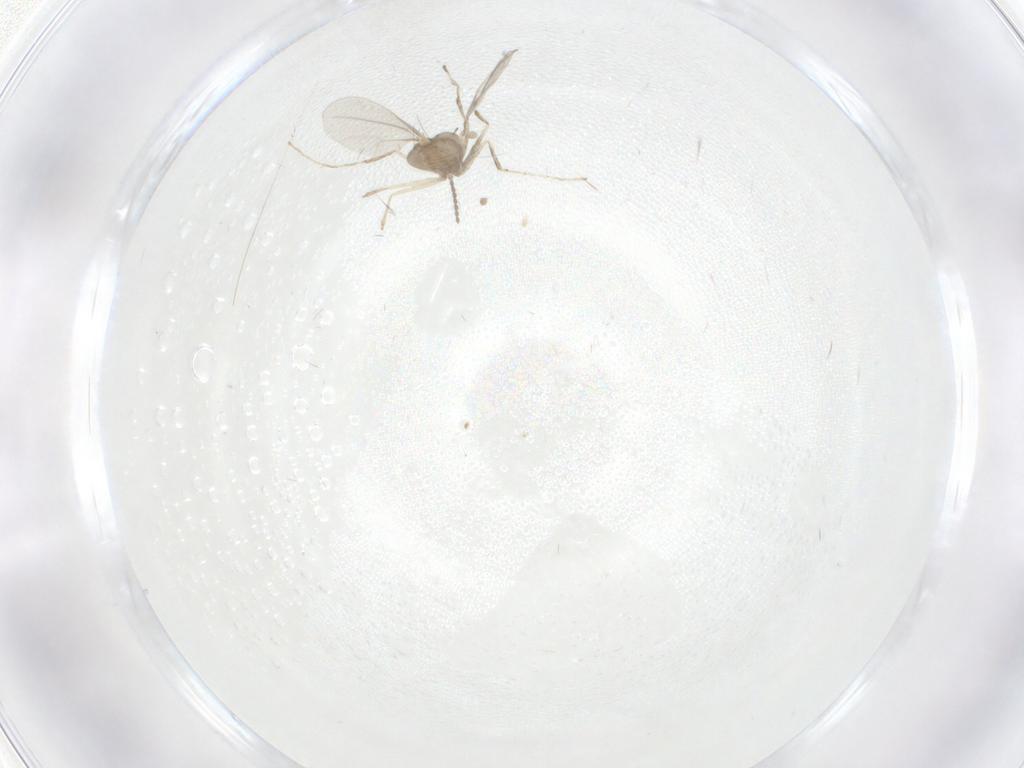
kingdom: Animalia
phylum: Arthropoda
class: Insecta
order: Diptera
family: Cecidomyiidae
